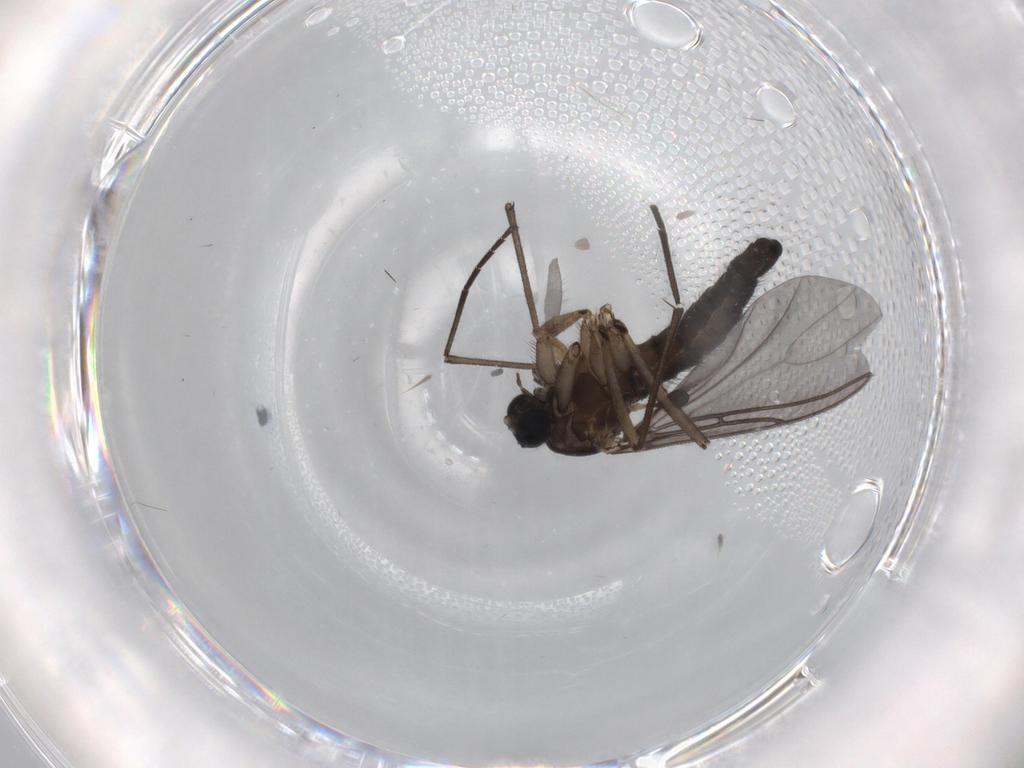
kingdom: Animalia
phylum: Arthropoda
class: Insecta
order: Diptera
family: Sciaridae
